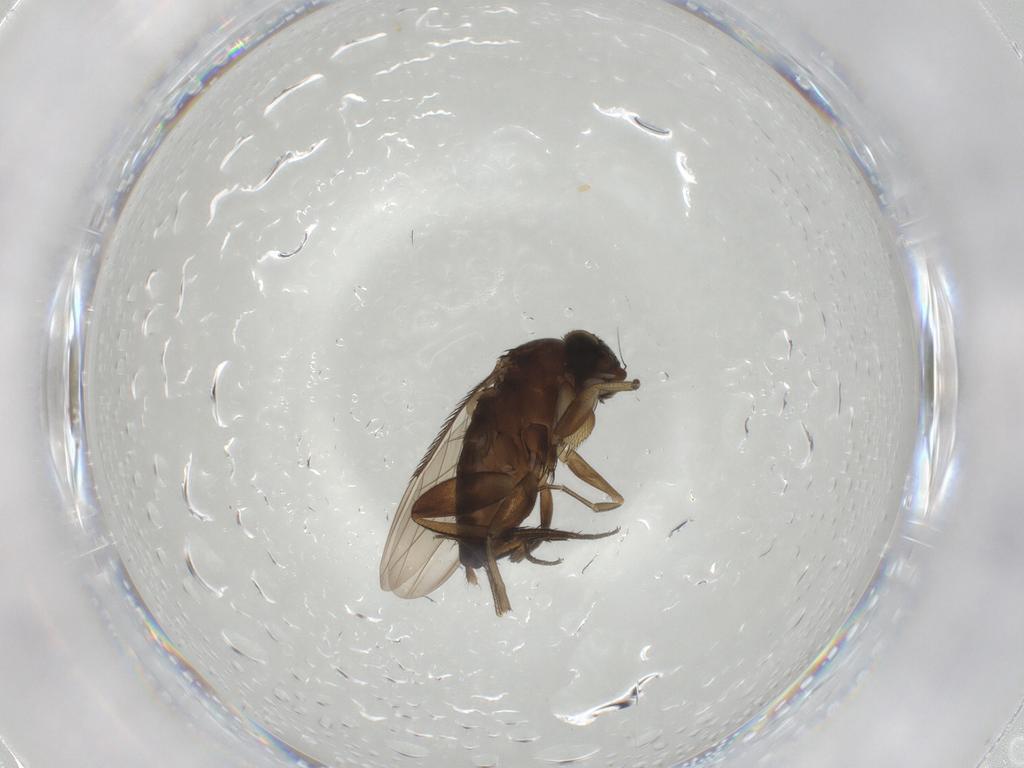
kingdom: Animalia
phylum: Arthropoda
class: Insecta
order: Diptera
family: Phoridae
